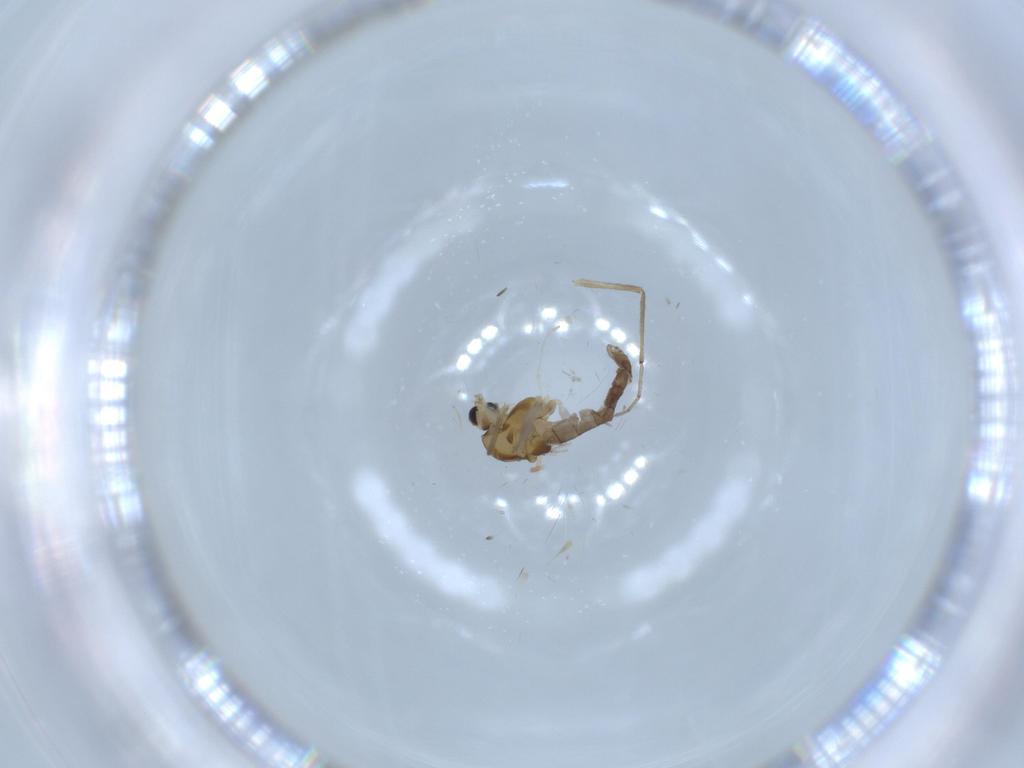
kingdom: Animalia
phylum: Arthropoda
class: Insecta
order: Diptera
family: Chironomidae
